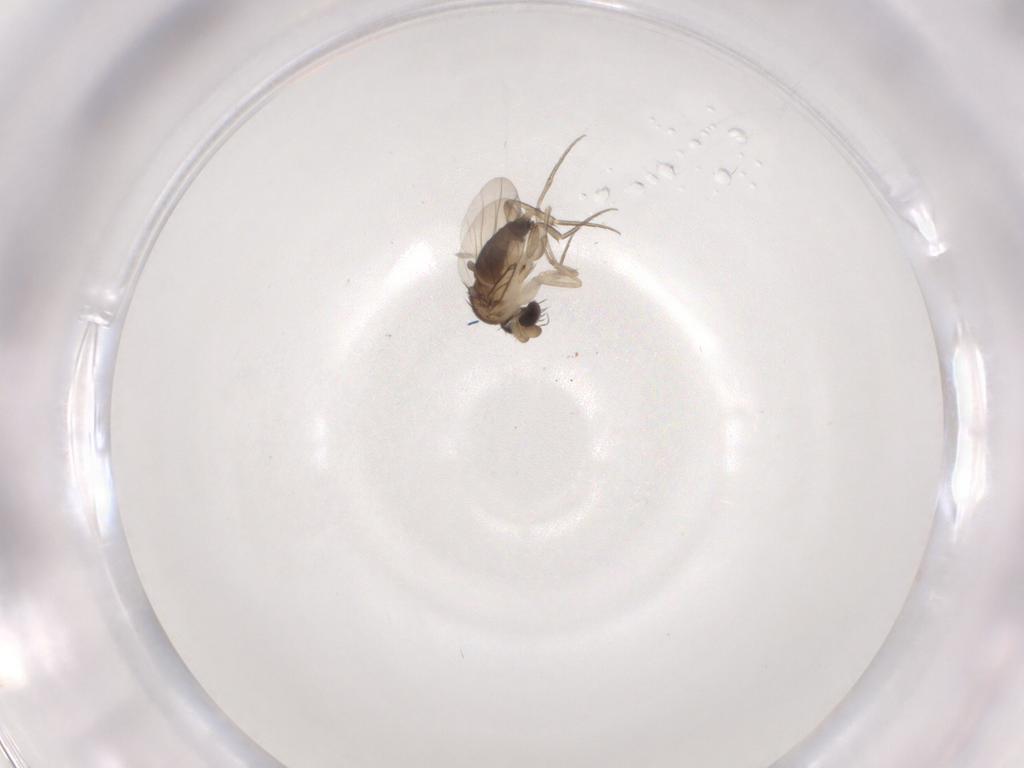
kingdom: Animalia
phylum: Arthropoda
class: Insecta
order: Diptera
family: Phoridae
